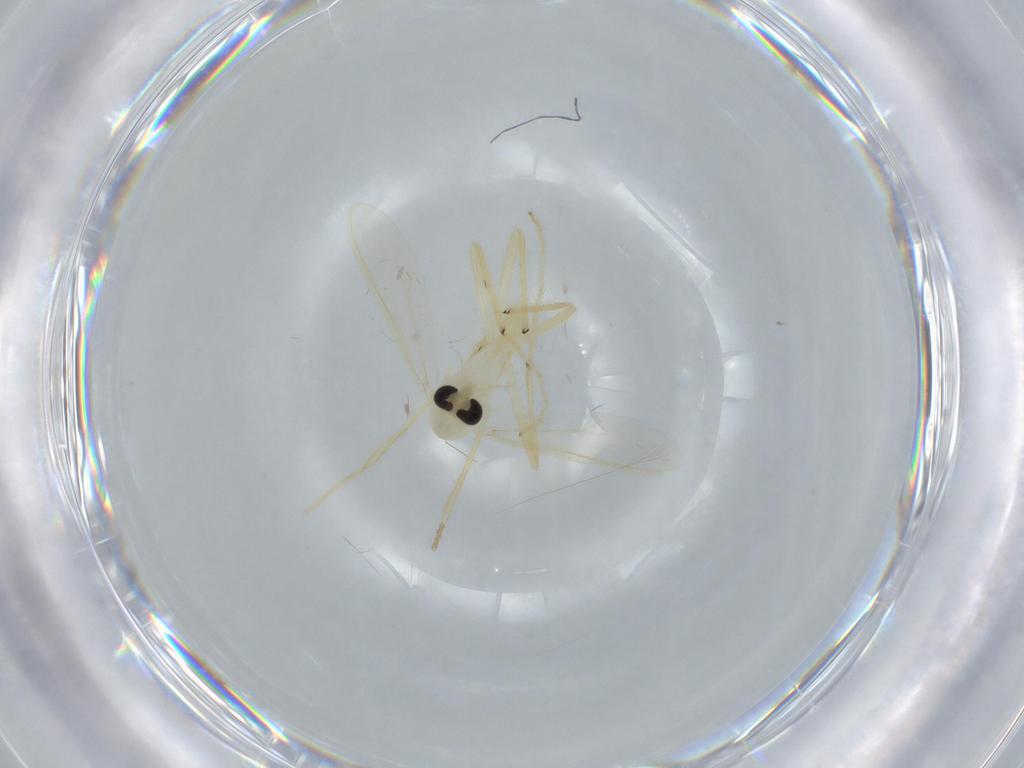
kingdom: Animalia
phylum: Arthropoda
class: Insecta
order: Diptera
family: Chironomidae
